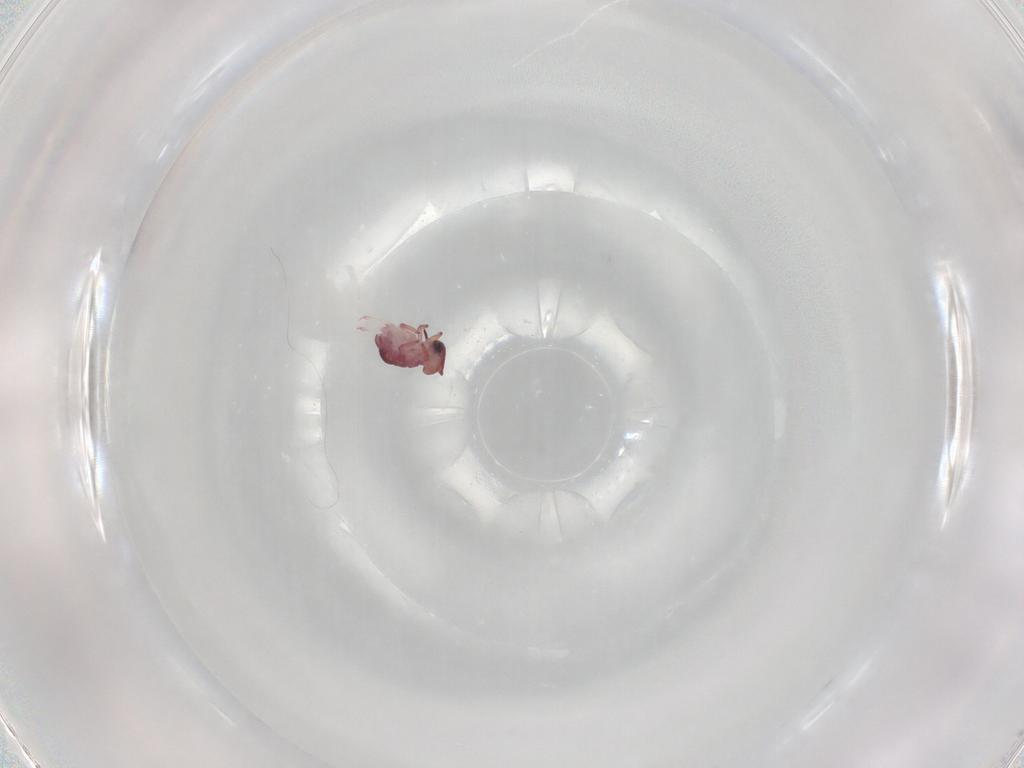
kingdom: Animalia
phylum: Arthropoda
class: Collembola
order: Symphypleona
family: Sminthurididae
